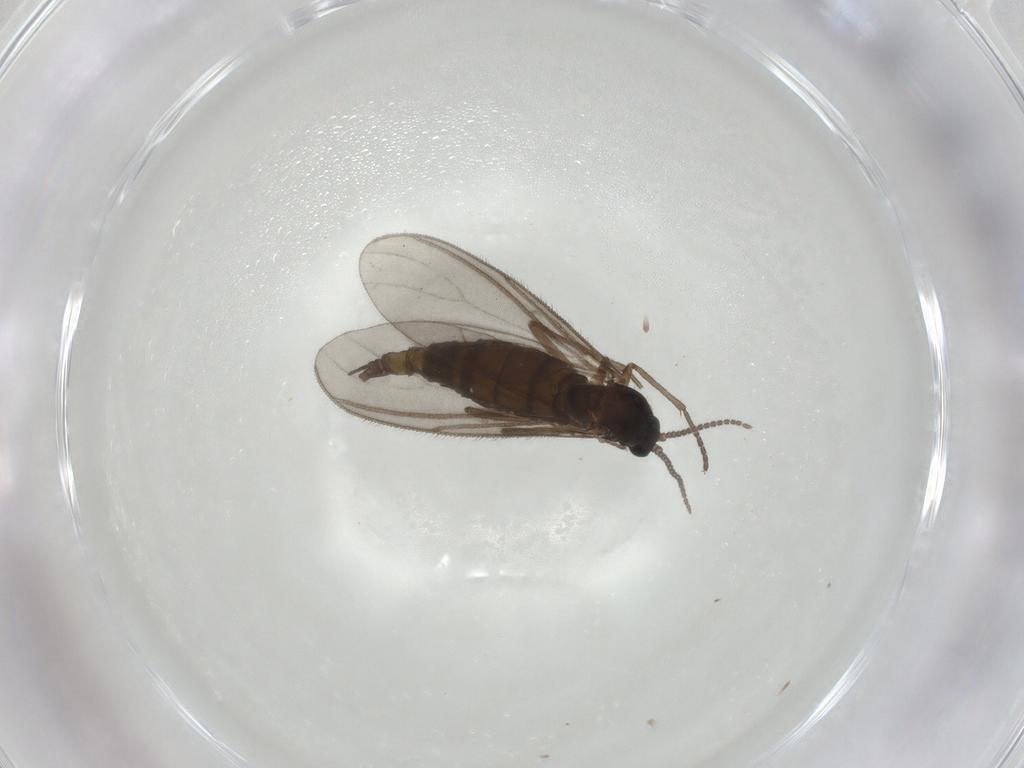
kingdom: Animalia
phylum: Arthropoda
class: Insecta
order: Diptera
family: Sciaridae
